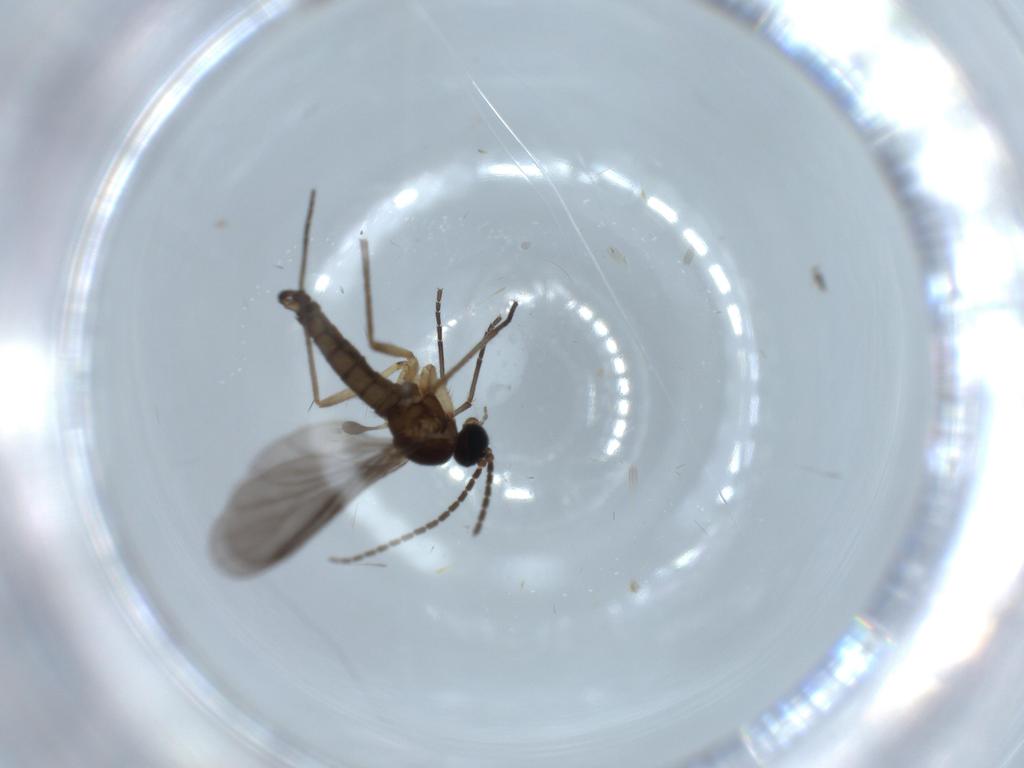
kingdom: Animalia
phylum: Arthropoda
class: Insecta
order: Diptera
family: Sciaridae
